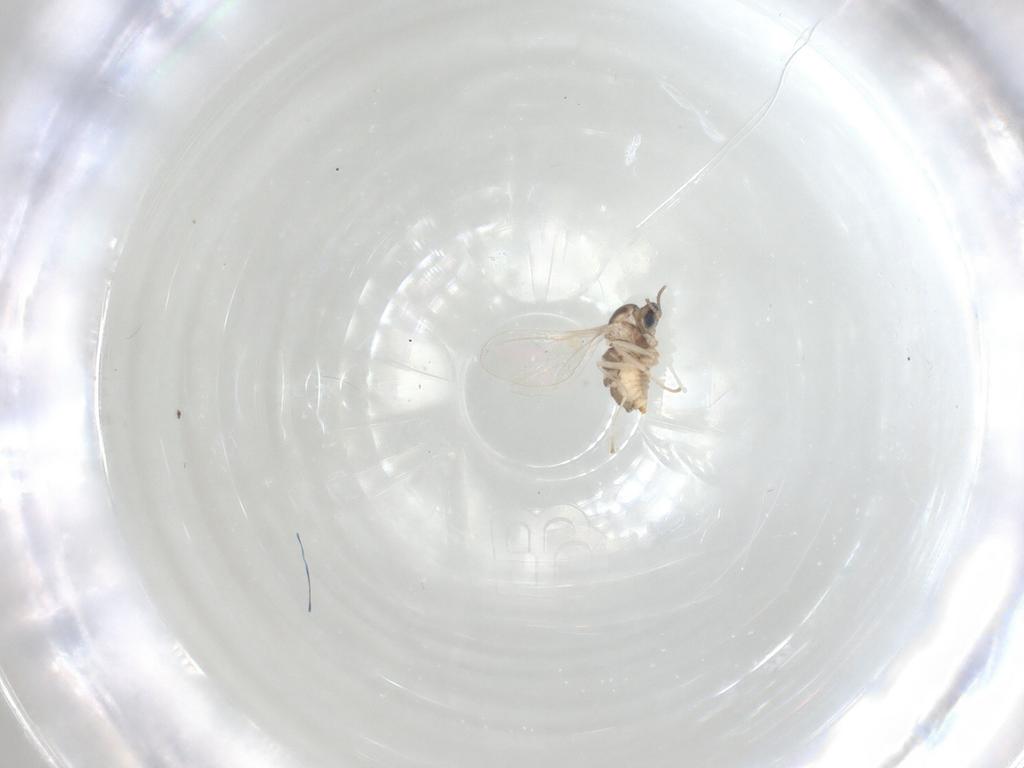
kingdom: Animalia
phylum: Arthropoda
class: Insecta
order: Diptera
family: Cecidomyiidae
